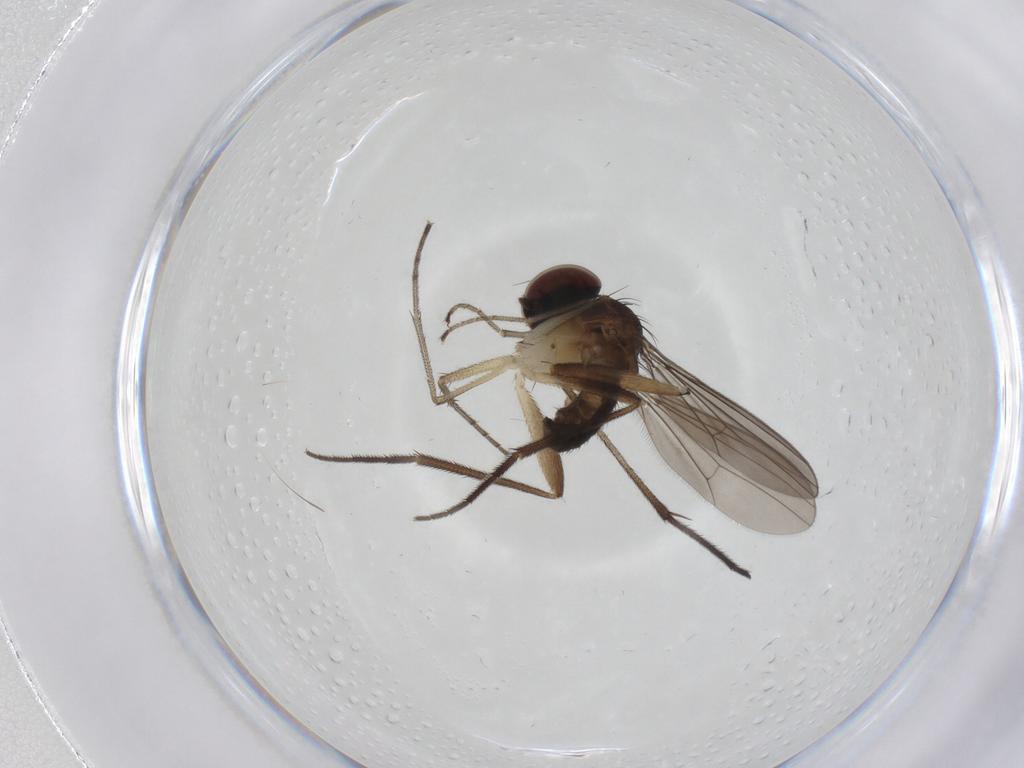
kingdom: Animalia
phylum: Arthropoda
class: Insecta
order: Diptera
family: Dolichopodidae
